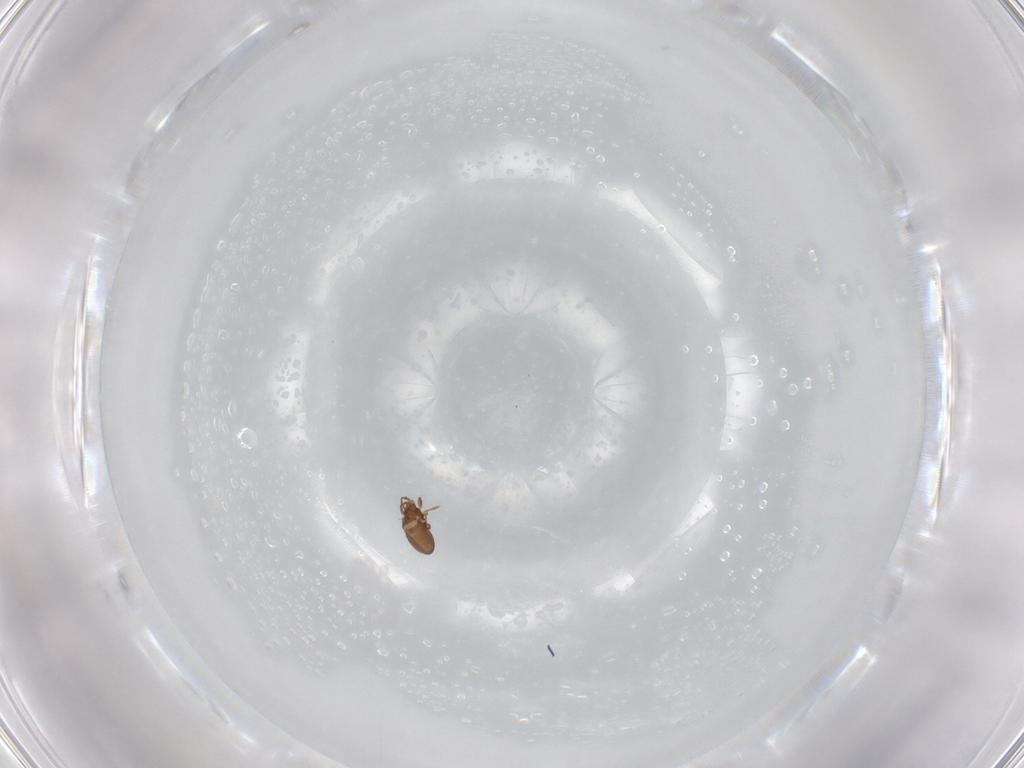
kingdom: Animalia
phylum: Arthropoda
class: Arachnida
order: Sarcoptiformes
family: Oribatulidae
